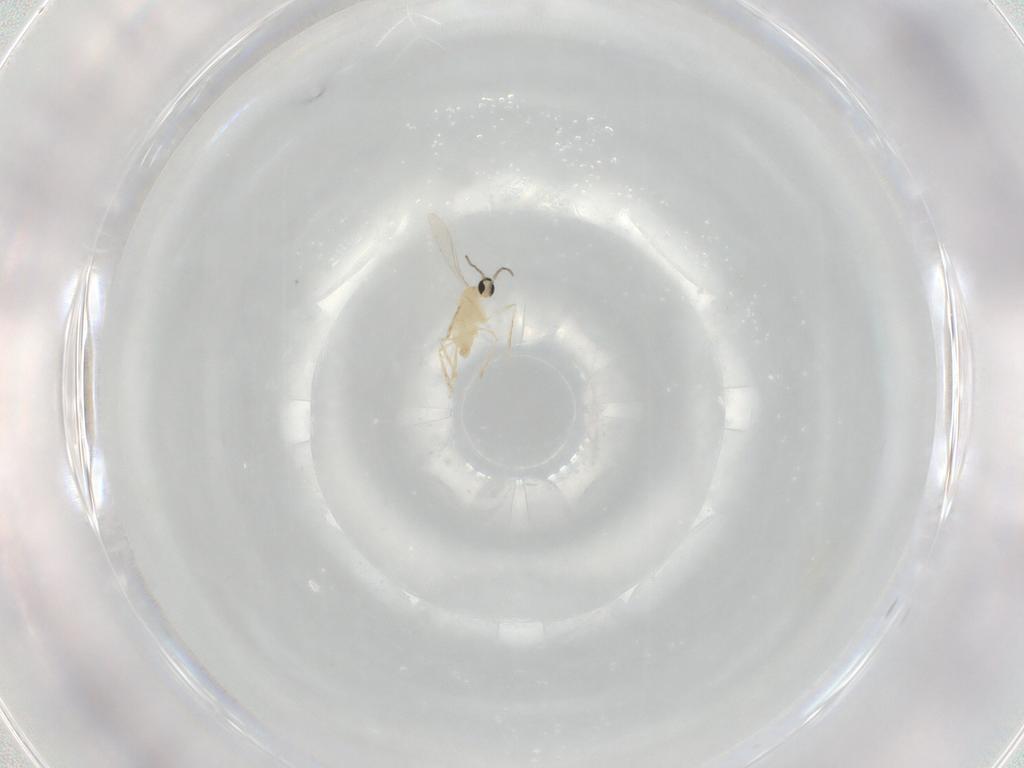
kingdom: Animalia
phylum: Arthropoda
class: Insecta
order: Diptera
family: Cecidomyiidae
